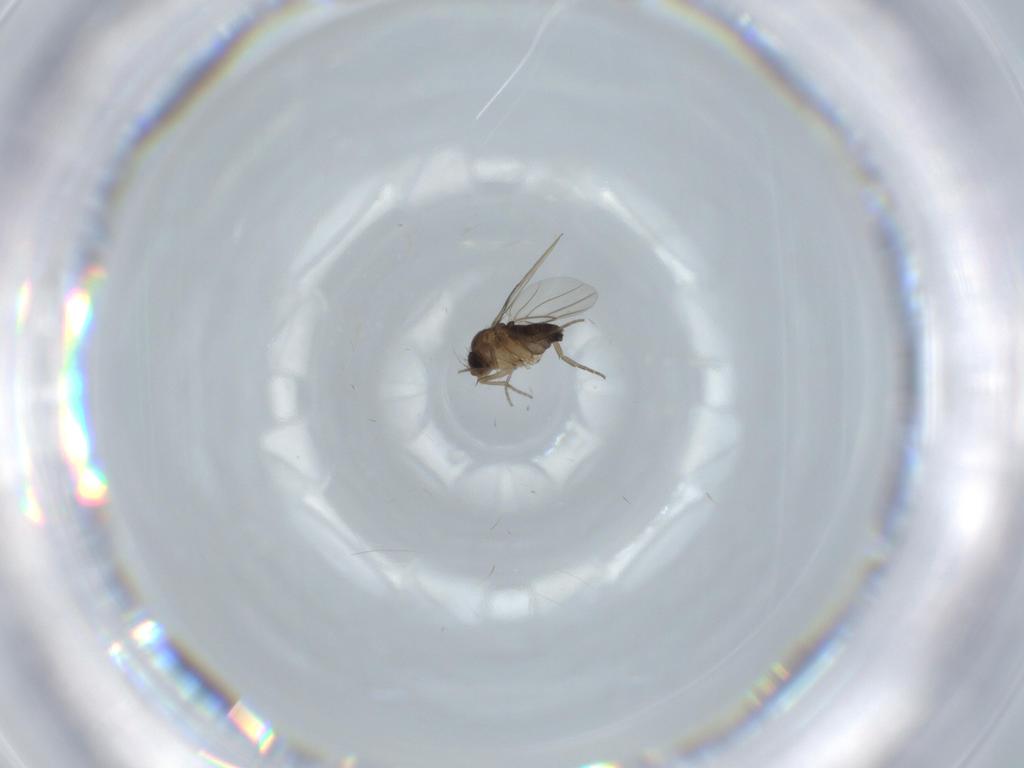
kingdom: Animalia
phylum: Arthropoda
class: Insecta
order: Diptera
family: Phoridae
